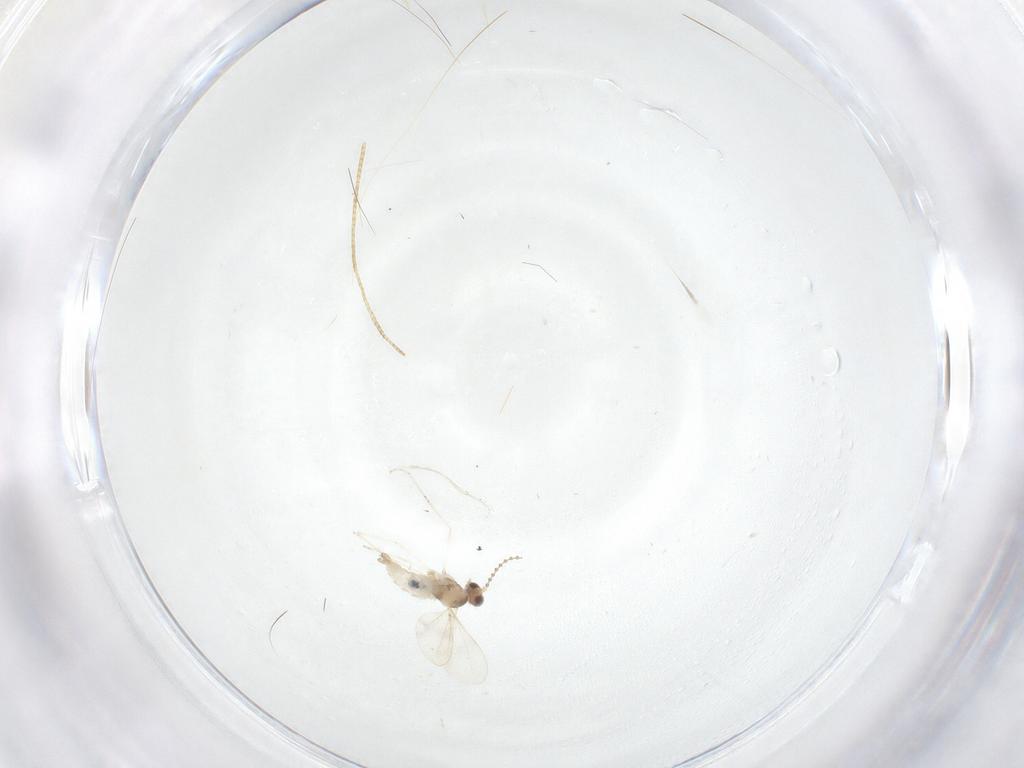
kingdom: Animalia
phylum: Arthropoda
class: Insecta
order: Diptera
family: Cecidomyiidae
